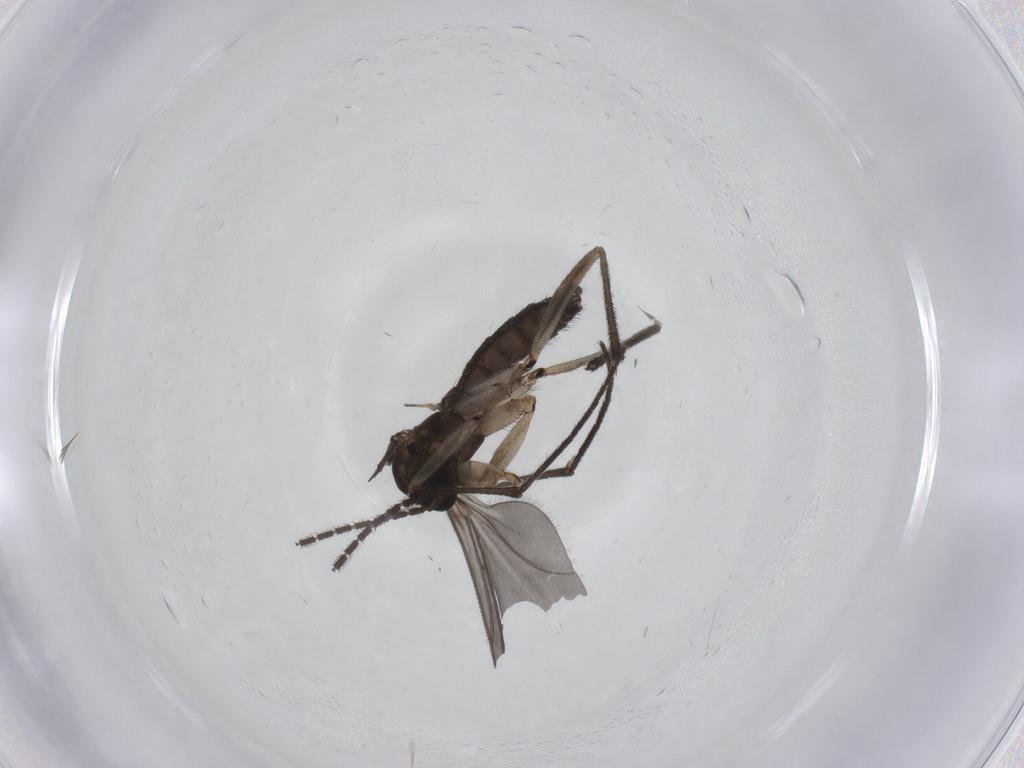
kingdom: Animalia
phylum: Arthropoda
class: Insecta
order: Diptera
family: Sciaridae
